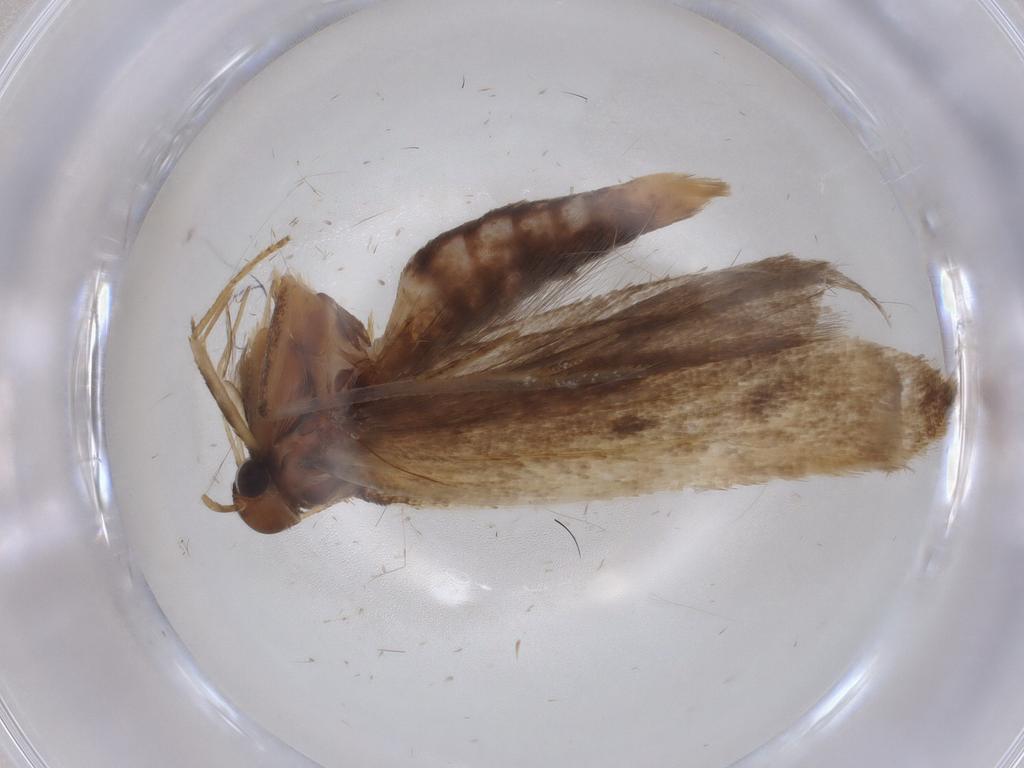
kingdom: Animalia
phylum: Arthropoda
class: Insecta
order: Lepidoptera
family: Gelechiidae
